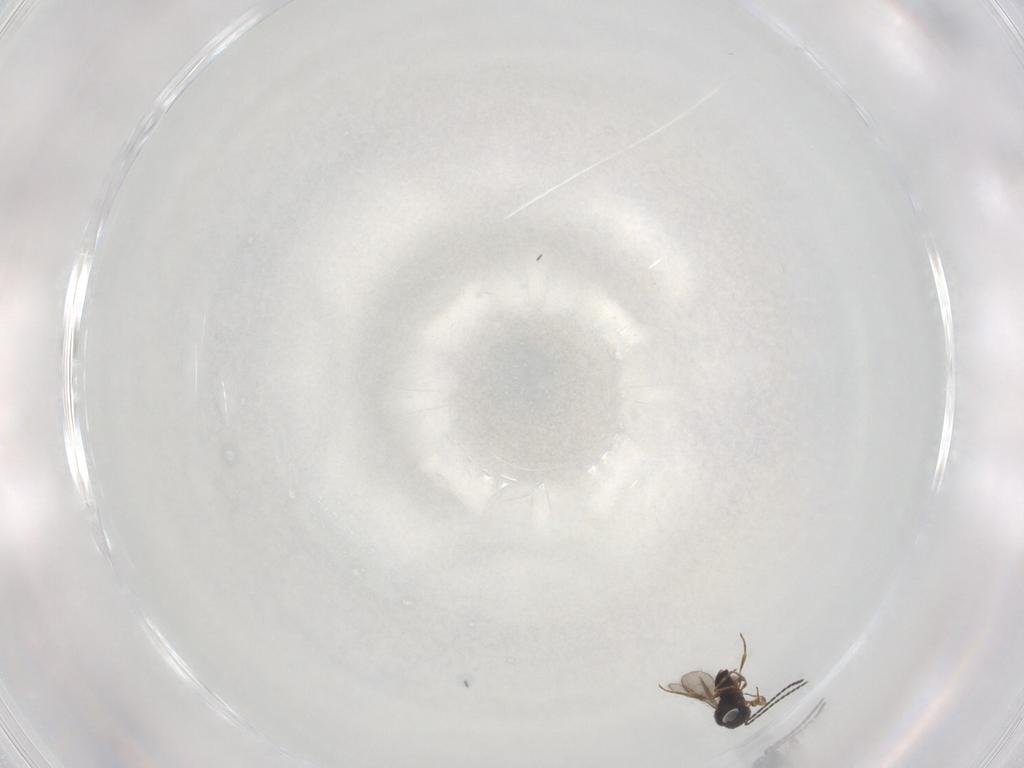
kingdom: Animalia
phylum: Arthropoda
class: Insecta
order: Hymenoptera
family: Scelionidae
